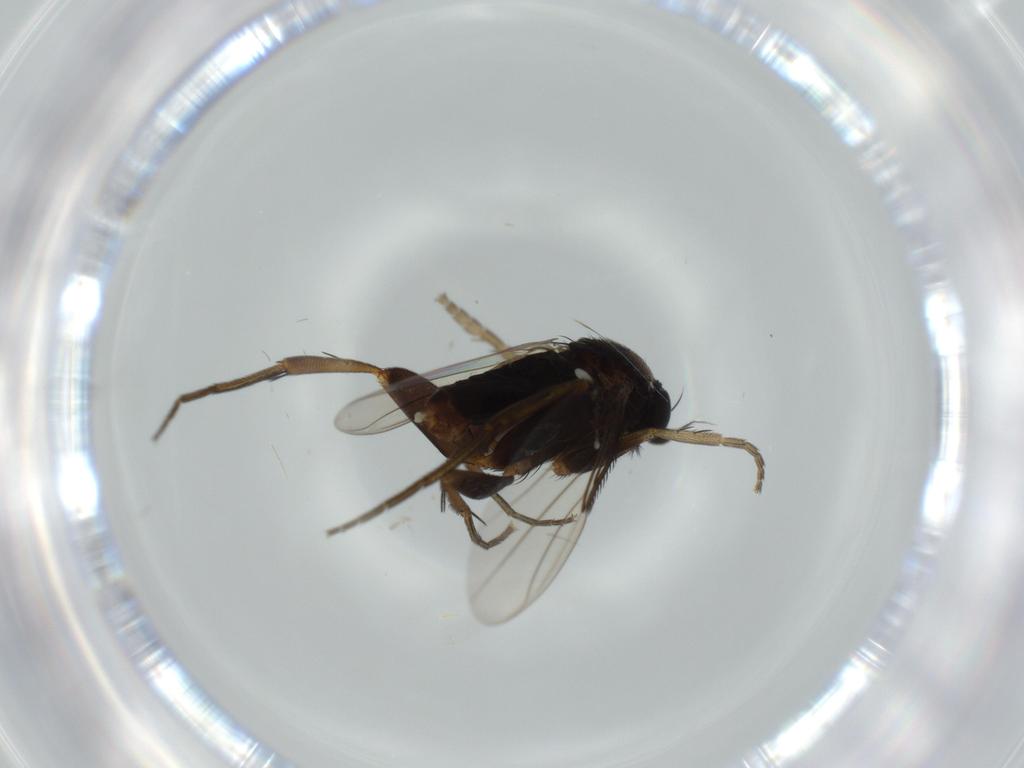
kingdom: Animalia
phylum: Arthropoda
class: Insecta
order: Diptera
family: Phoridae
